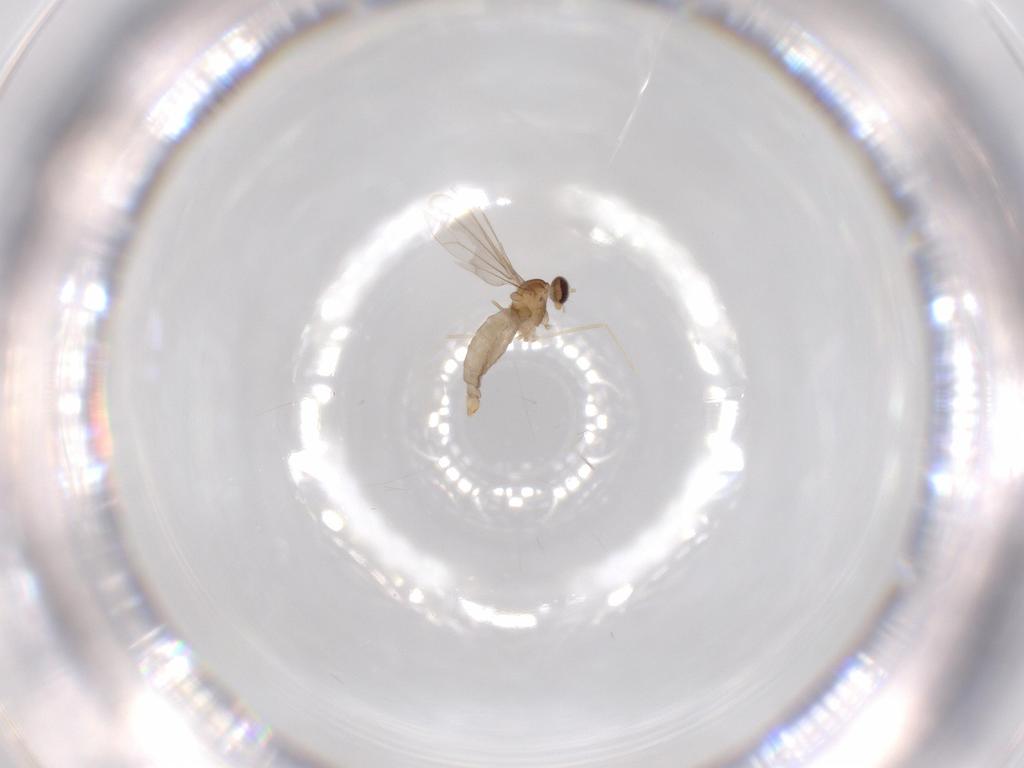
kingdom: Animalia
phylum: Arthropoda
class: Insecta
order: Diptera
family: Cecidomyiidae
